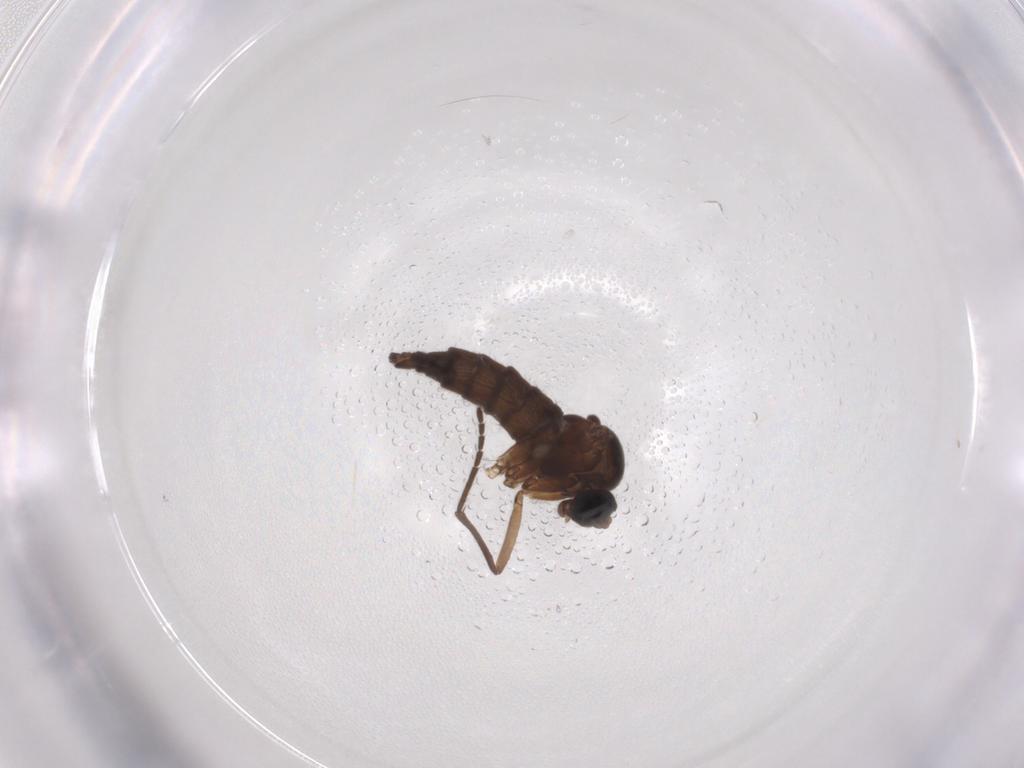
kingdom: Animalia
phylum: Arthropoda
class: Insecta
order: Diptera
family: Sciaridae
